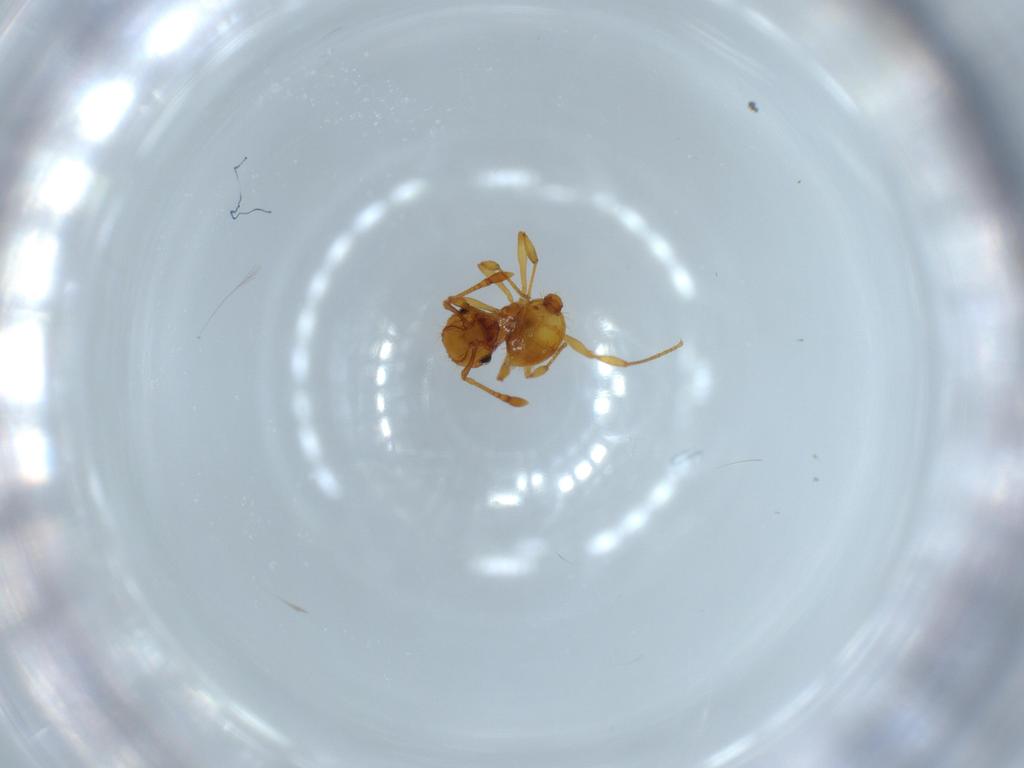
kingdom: Animalia
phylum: Arthropoda
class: Insecta
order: Hymenoptera
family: Formicidae
